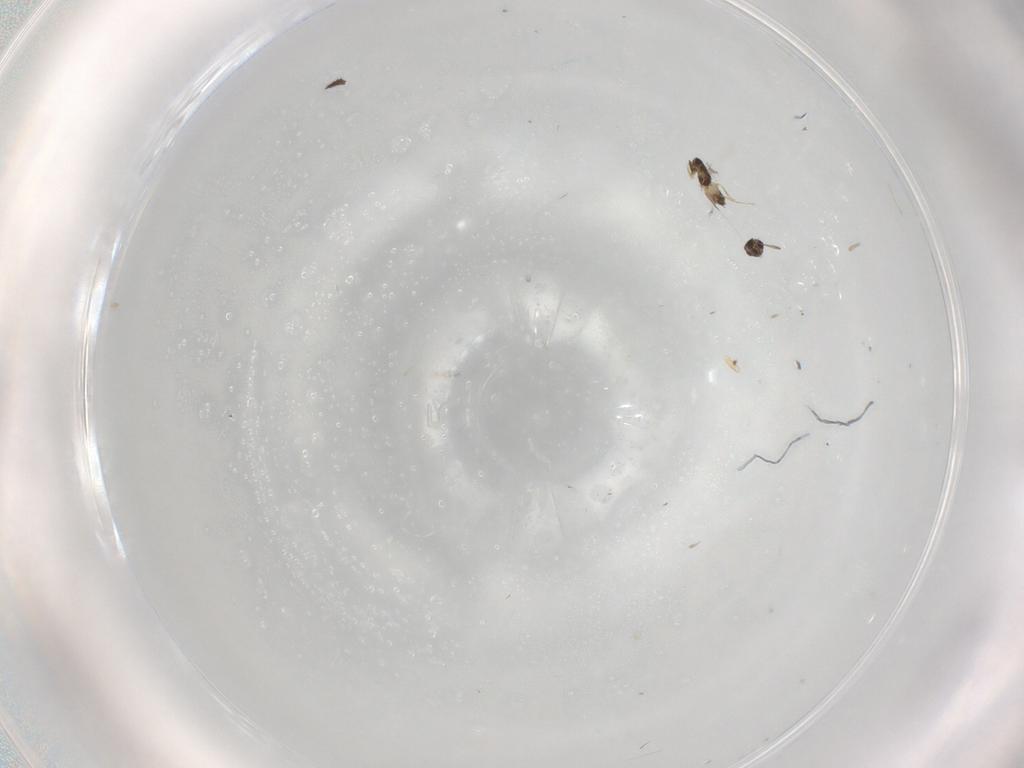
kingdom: Animalia
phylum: Arthropoda
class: Insecta
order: Hymenoptera
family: Mymaridae
